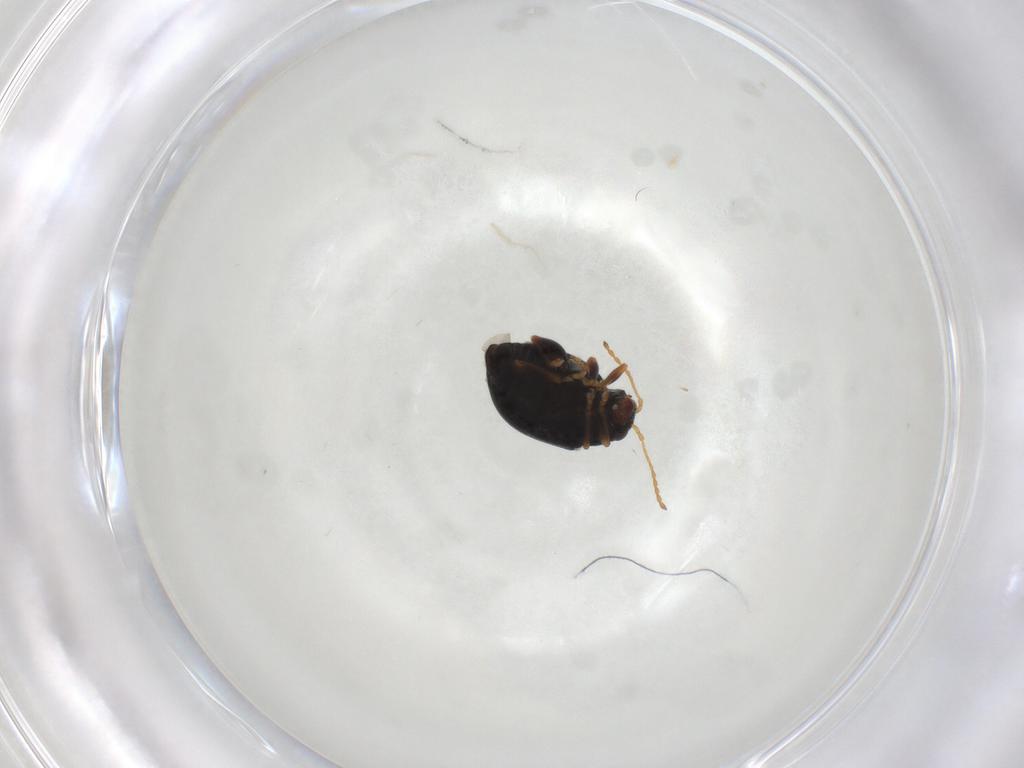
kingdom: Animalia
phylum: Arthropoda
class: Insecta
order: Coleoptera
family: Chrysomelidae
